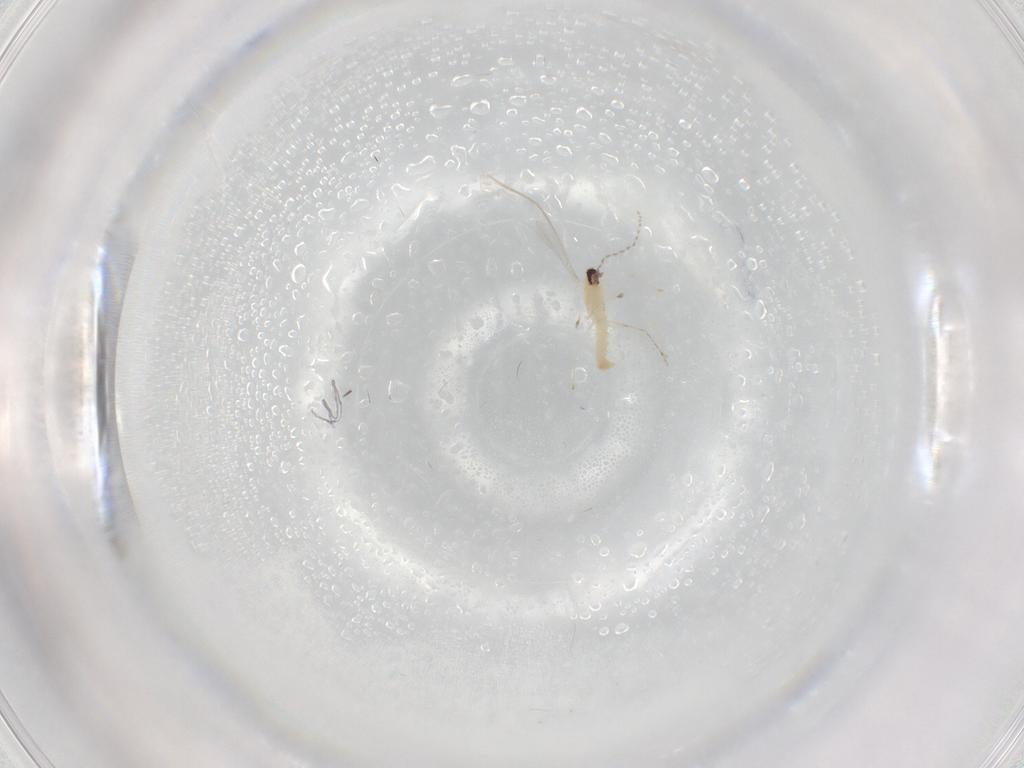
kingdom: Animalia
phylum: Arthropoda
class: Insecta
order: Diptera
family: Cecidomyiidae
